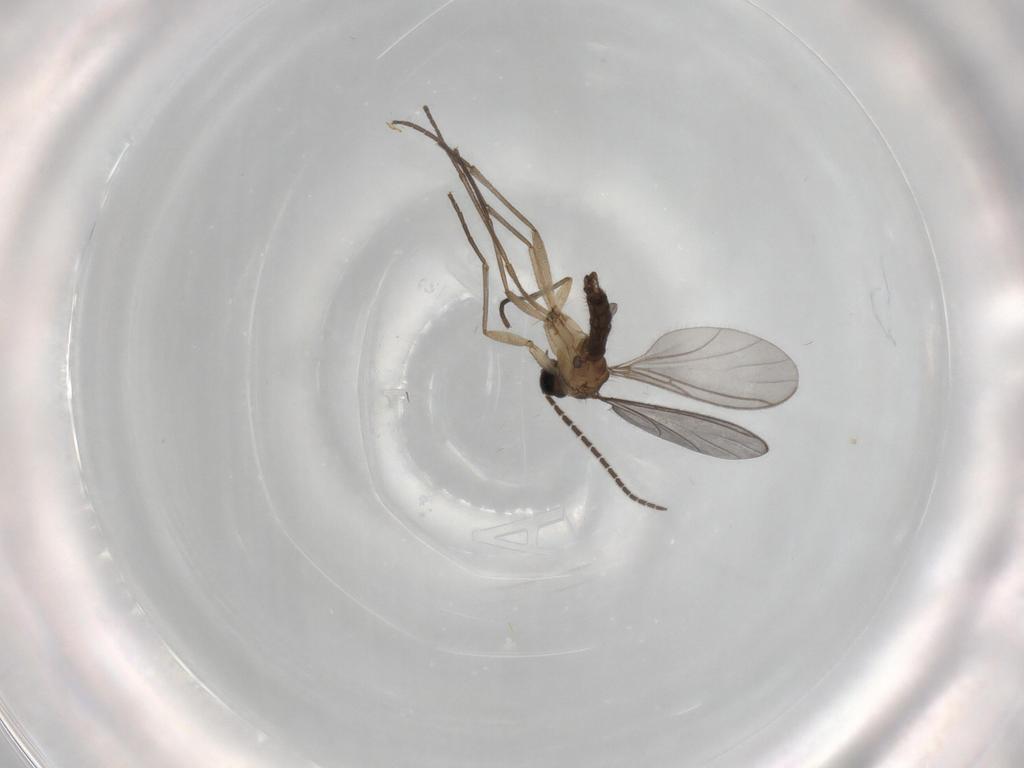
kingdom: Animalia
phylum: Arthropoda
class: Insecta
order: Diptera
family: Sciaridae
